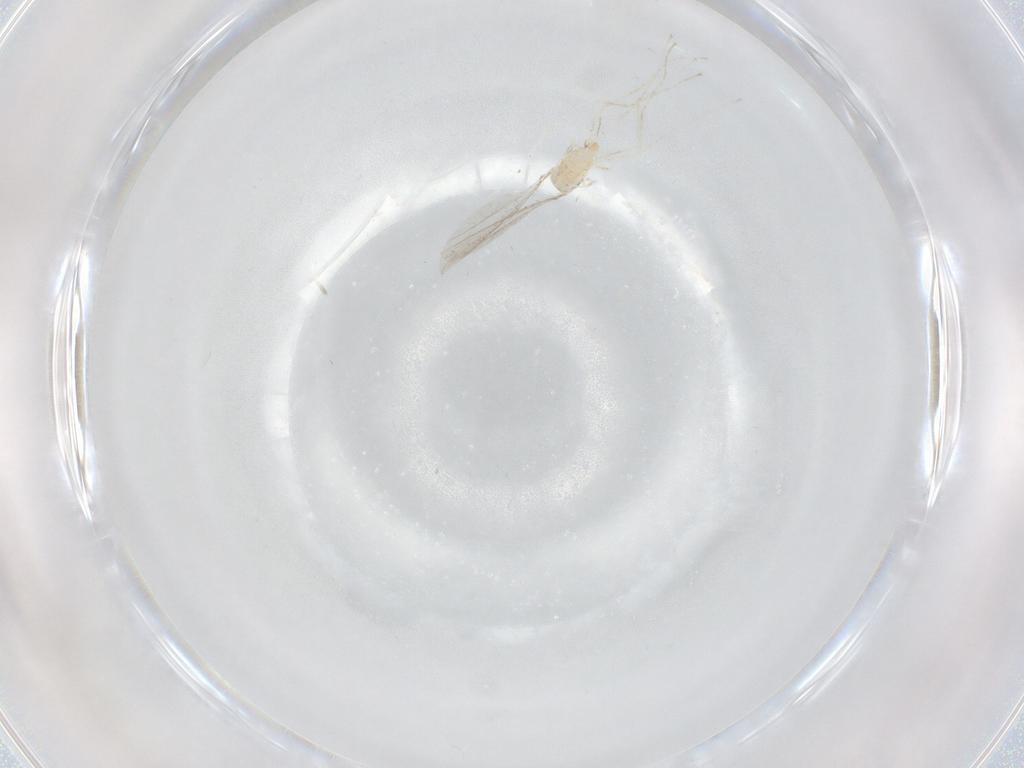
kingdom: Animalia
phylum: Arthropoda
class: Insecta
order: Diptera
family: Cecidomyiidae
